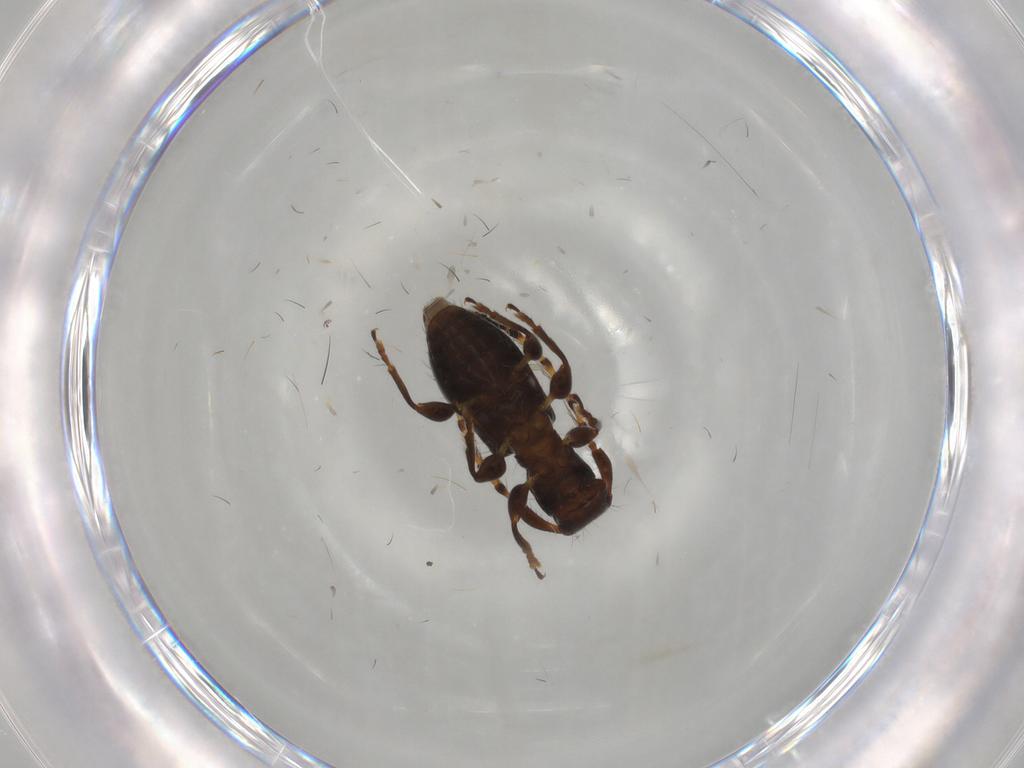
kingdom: Animalia
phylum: Arthropoda
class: Insecta
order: Coleoptera
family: Cerambycidae
